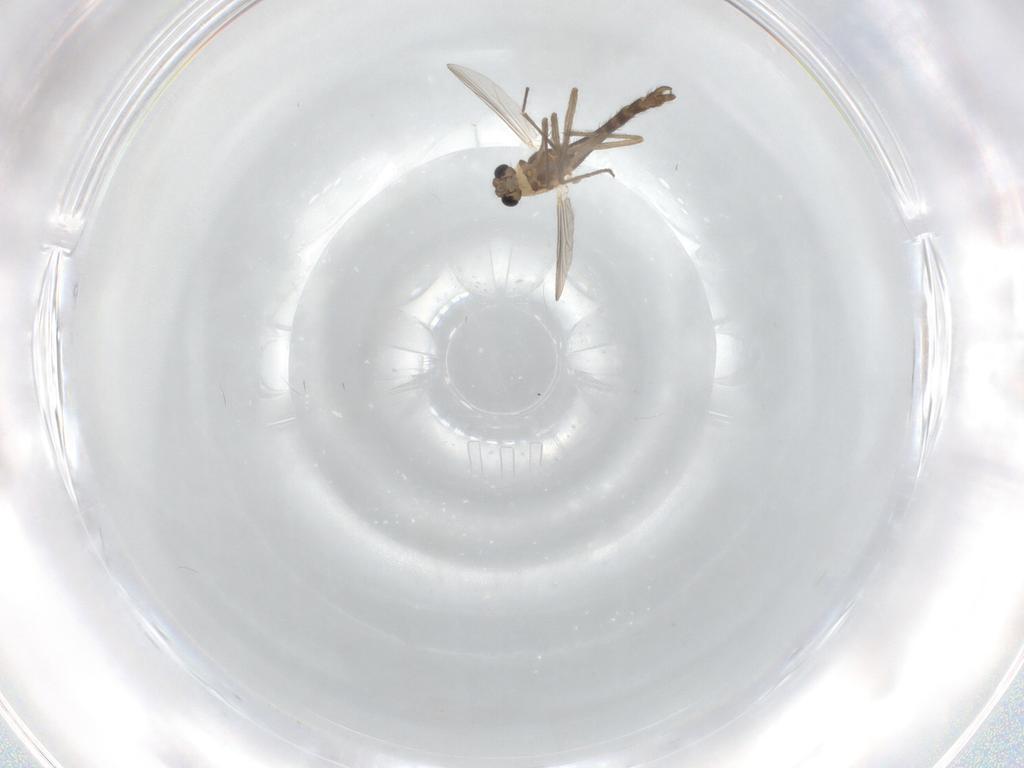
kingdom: Animalia
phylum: Arthropoda
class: Insecta
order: Diptera
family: Chironomidae
